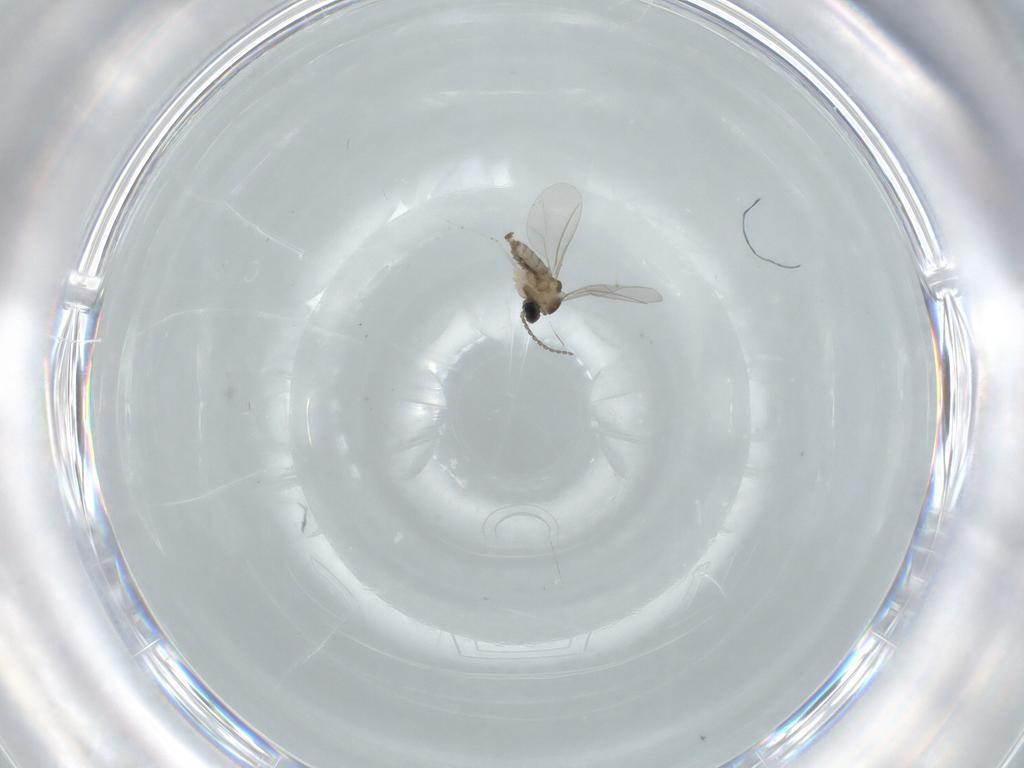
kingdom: Animalia
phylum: Arthropoda
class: Insecta
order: Diptera
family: Cecidomyiidae
